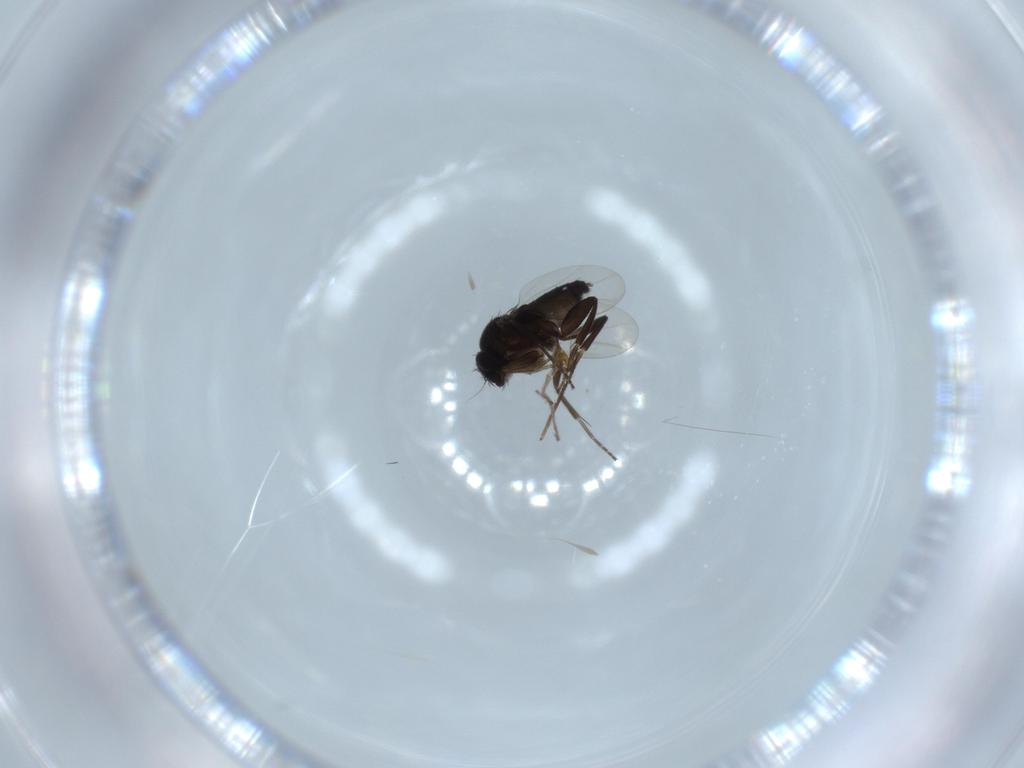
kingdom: Animalia
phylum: Arthropoda
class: Insecta
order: Diptera
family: Chironomidae
